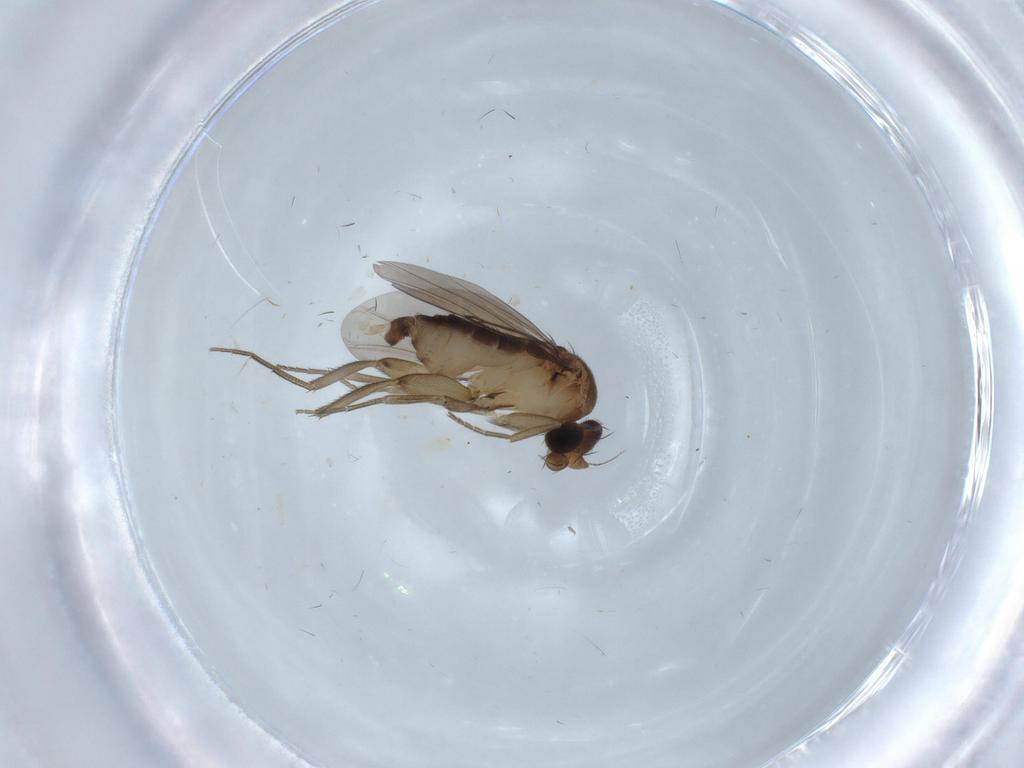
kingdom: Animalia
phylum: Arthropoda
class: Insecta
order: Diptera
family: Phoridae
